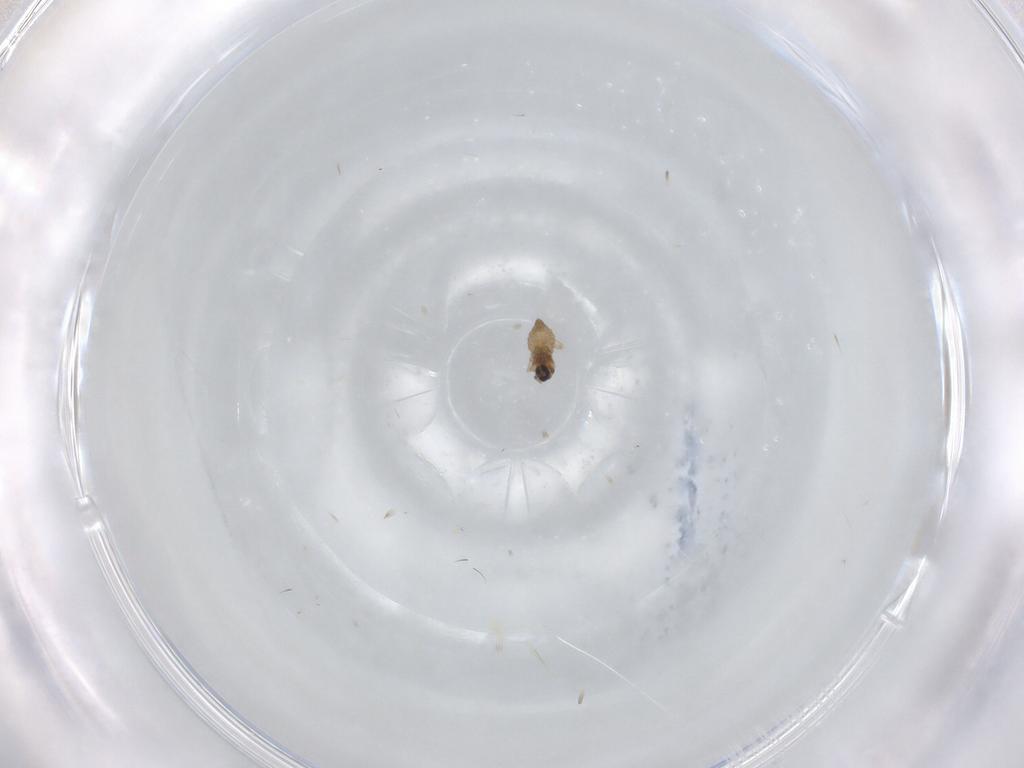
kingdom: Animalia
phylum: Arthropoda
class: Insecta
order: Diptera
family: Cecidomyiidae
